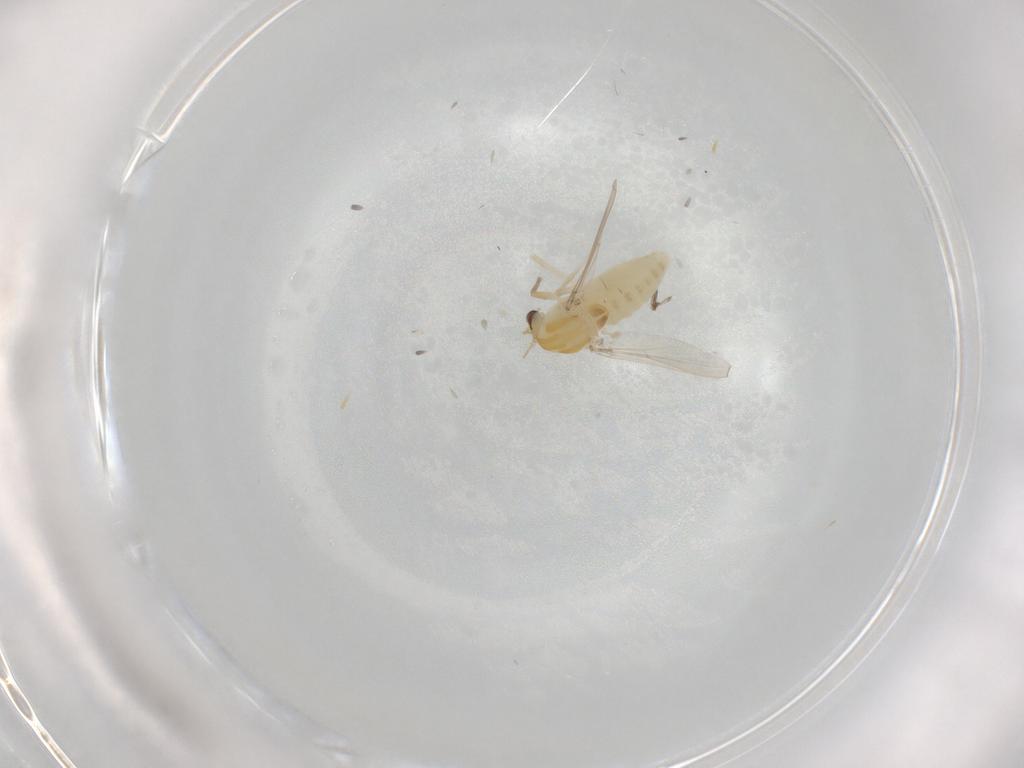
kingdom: Animalia
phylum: Arthropoda
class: Insecta
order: Diptera
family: Chironomidae
